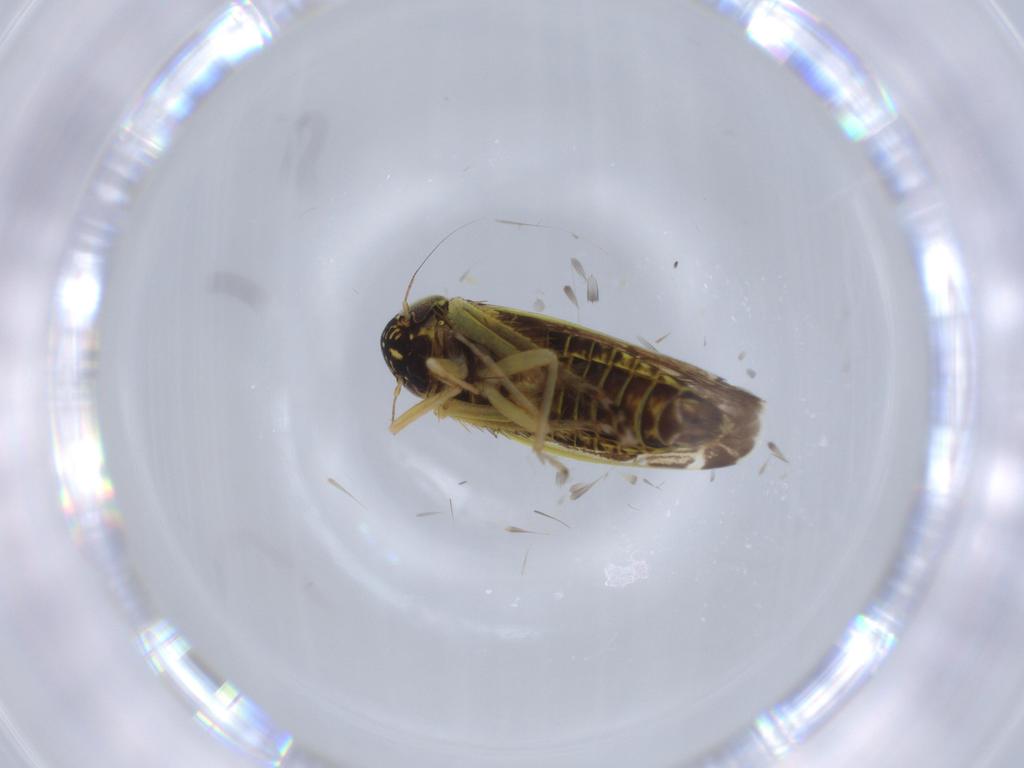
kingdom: Animalia
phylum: Arthropoda
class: Insecta
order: Hemiptera
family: Cicadellidae
